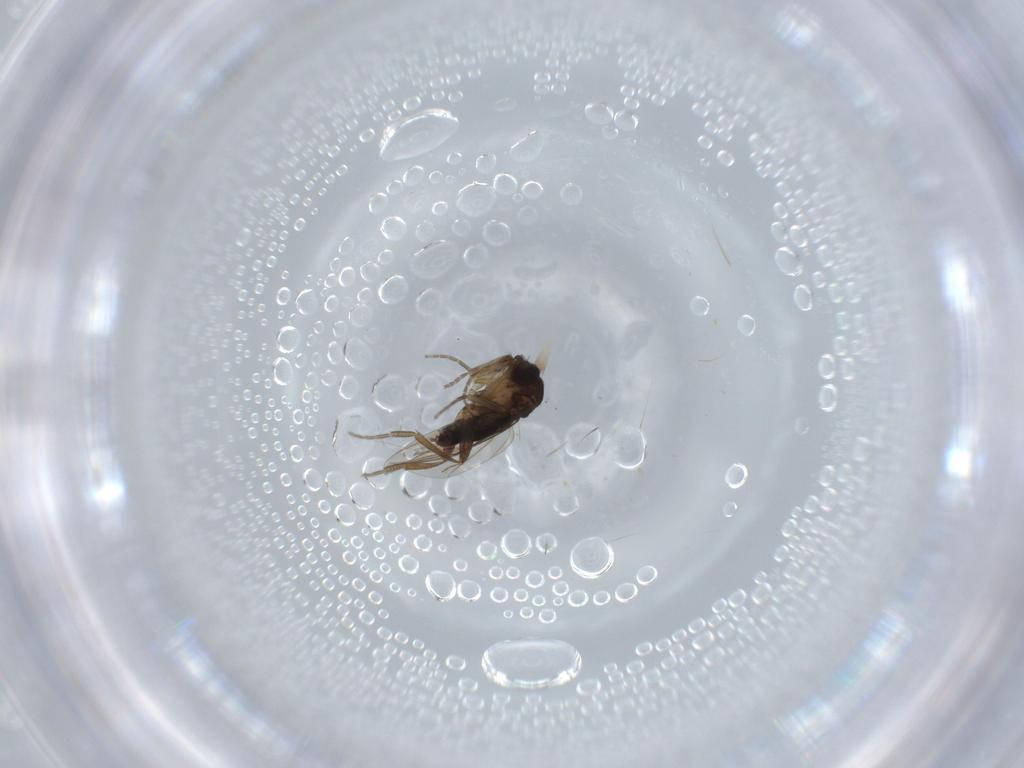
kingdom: Animalia
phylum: Arthropoda
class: Insecta
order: Diptera
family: Phoridae
